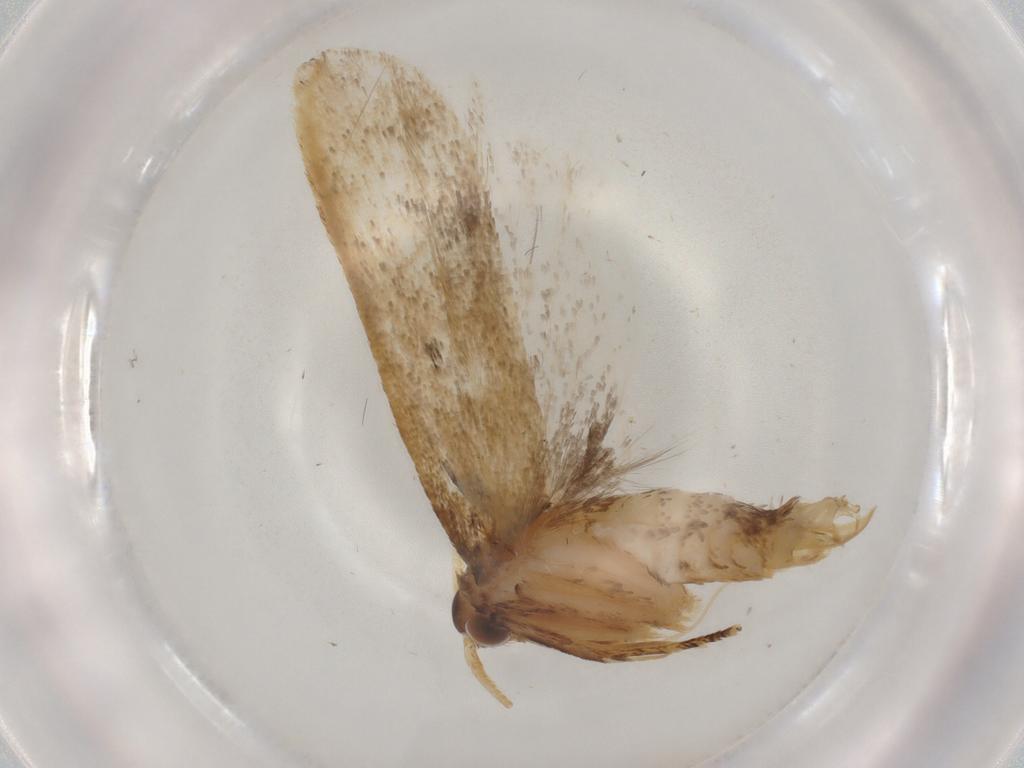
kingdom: Animalia
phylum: Arthropoda
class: Insecta
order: Lepidoptera
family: Lecithoceridae
